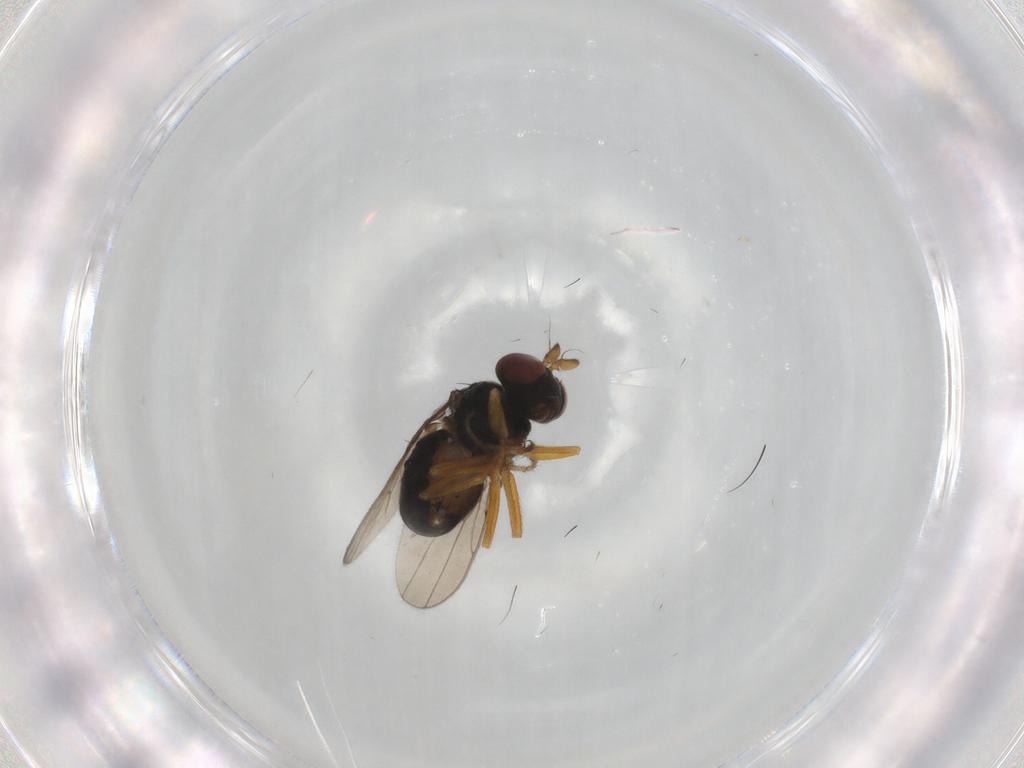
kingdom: Animalia
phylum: Arthropoda
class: Insecta
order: Diptera
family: Ephydridae
